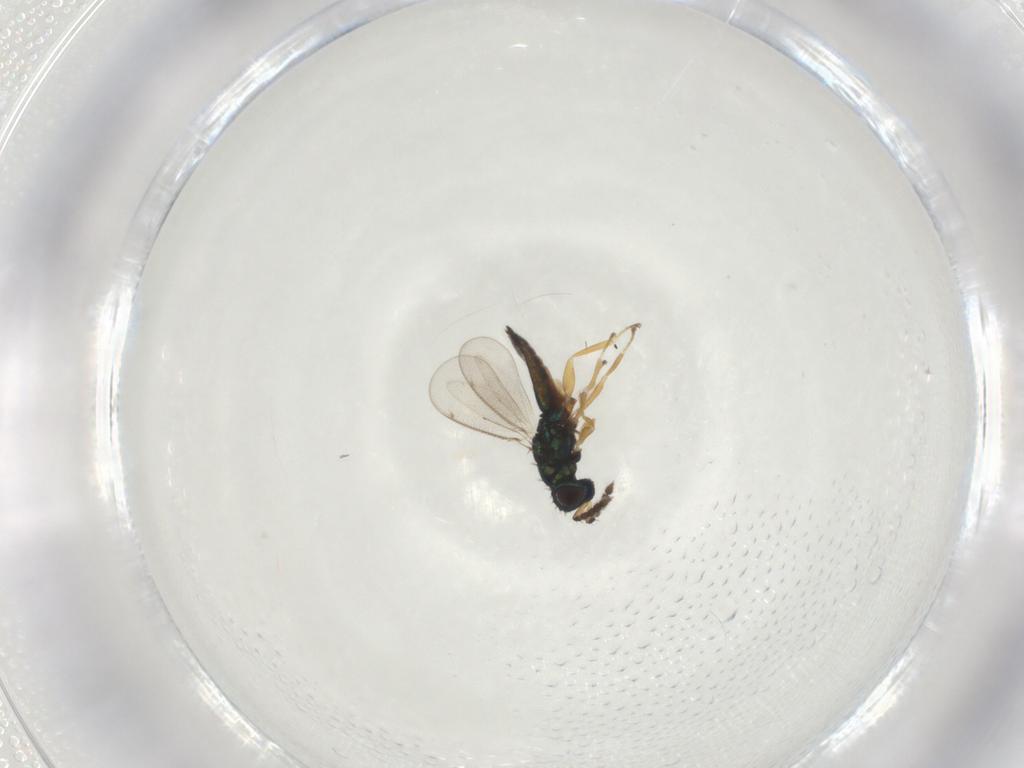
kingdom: Animalia
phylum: Arthropoda
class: Insecta
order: Hymenoptera
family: Eulophidae
